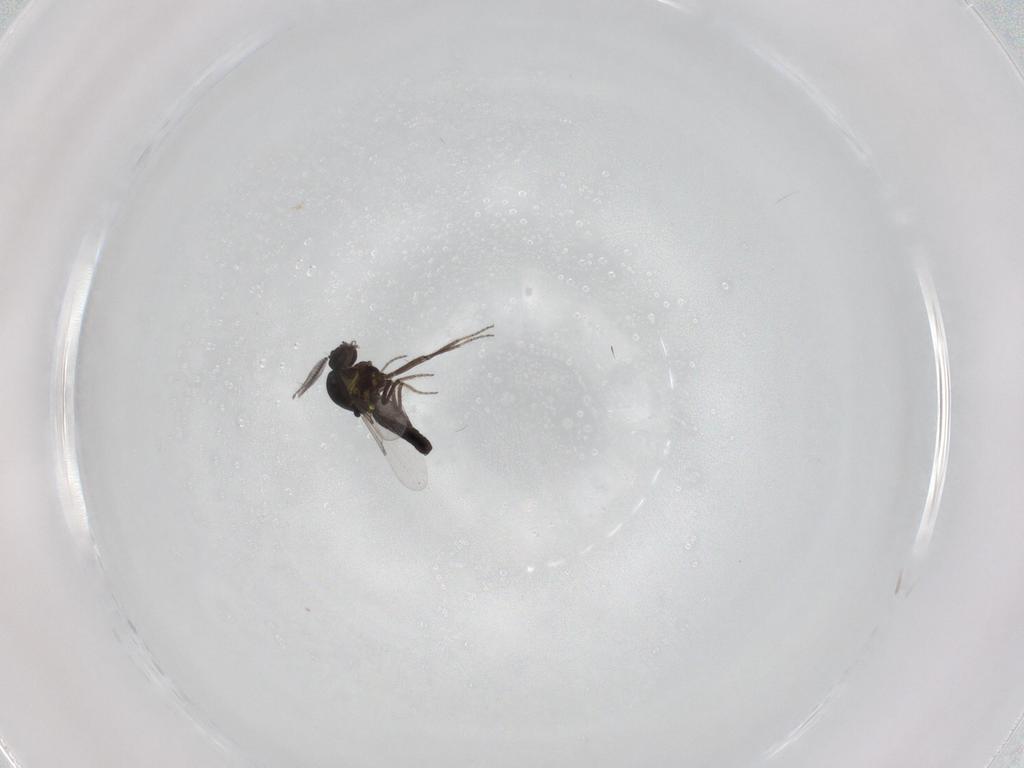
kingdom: Animalia
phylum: Arthropoda
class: Insecta
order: Diptera
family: Ceratopogonidae
